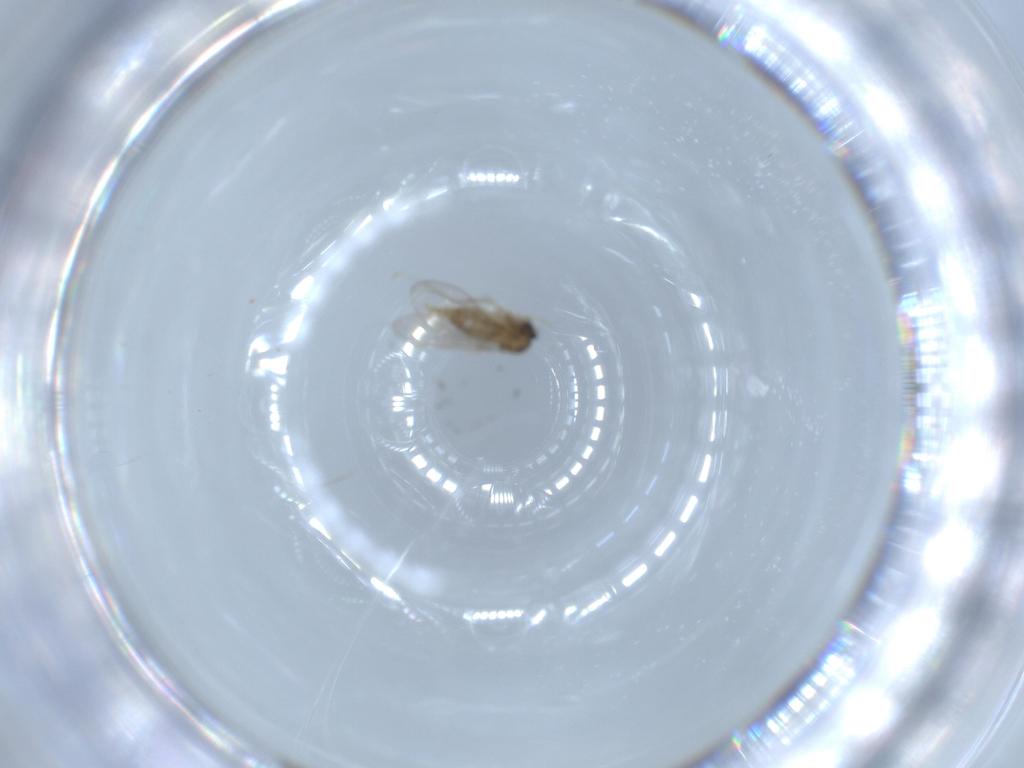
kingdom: Animalia
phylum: Arthropoda
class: Insecta
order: Diptera
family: Cecidomyiidae
